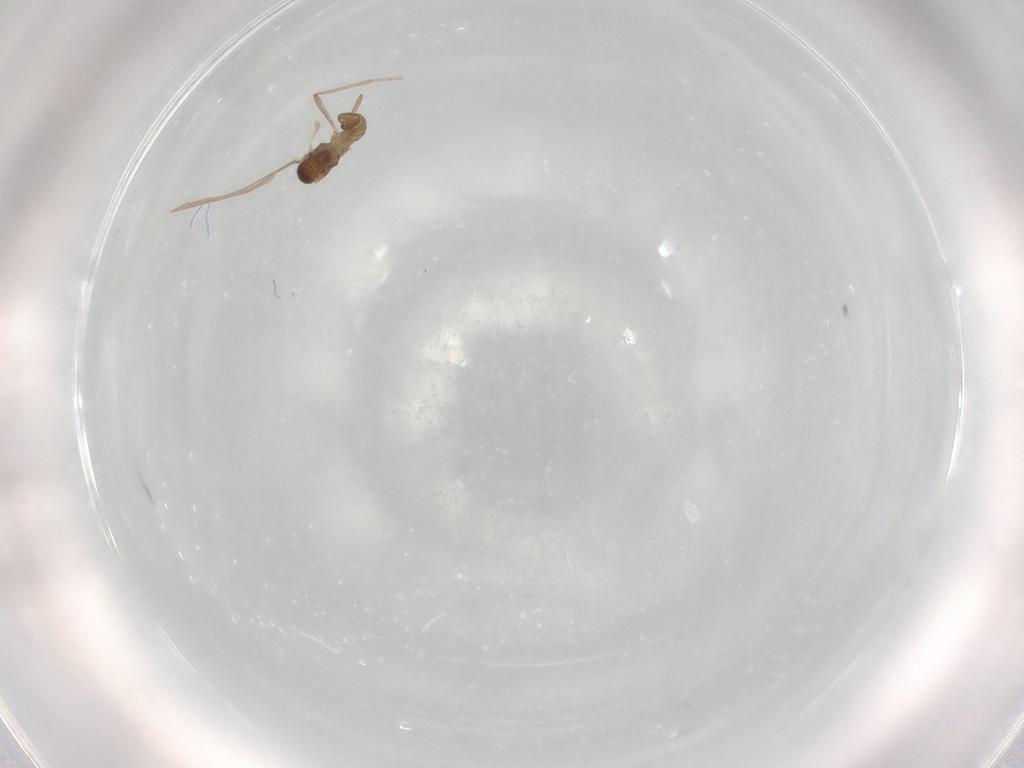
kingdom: Animalia
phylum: Arthropoda
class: Insecta
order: Diptera
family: Cecidomyiidae
